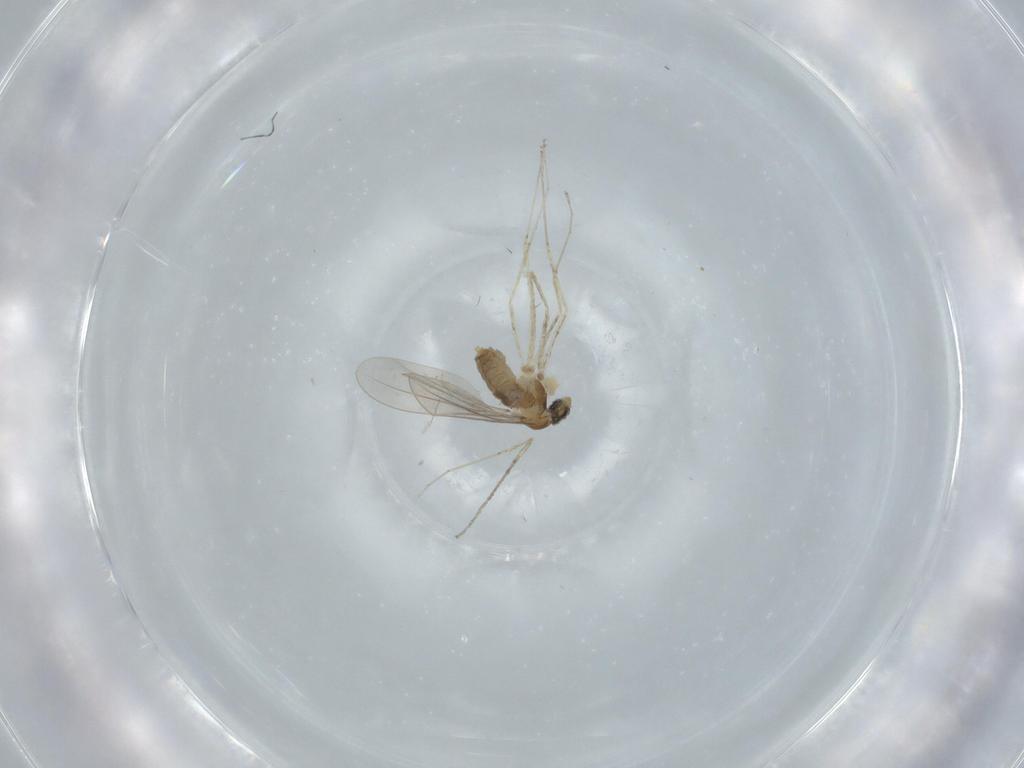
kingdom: Animalia
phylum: Arthropoda
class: Insecta
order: Diptera
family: Cecidomyiidae
